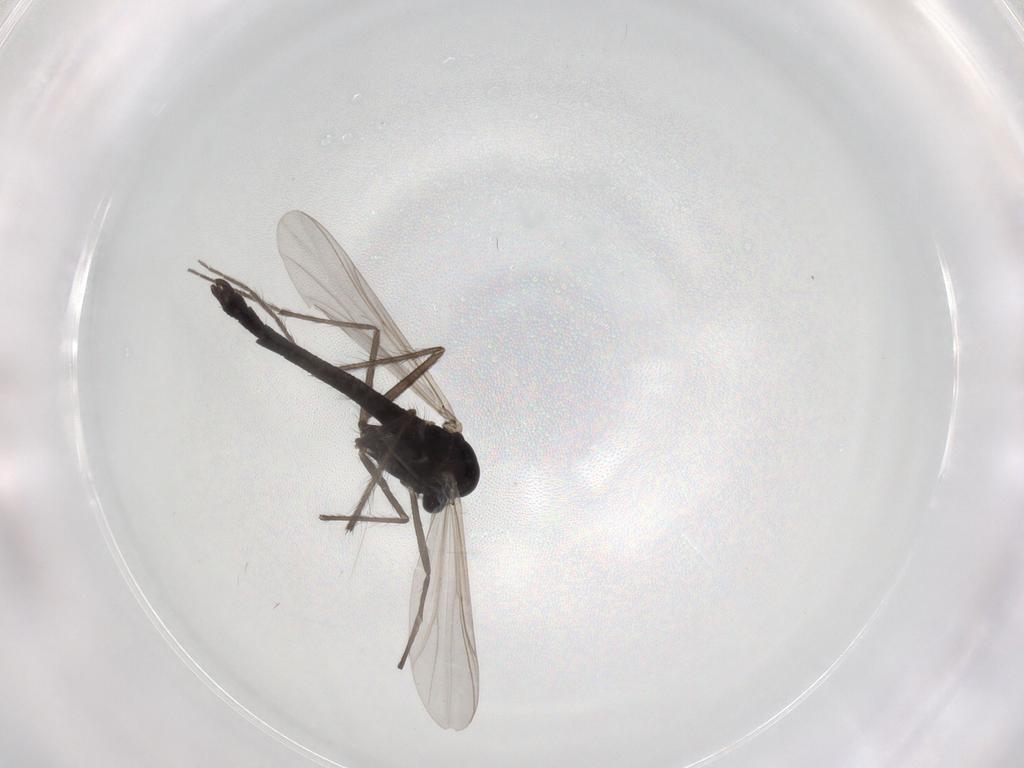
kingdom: Animalia
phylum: Arthropoda
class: Insecta
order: Diptera
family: Chironomidae
